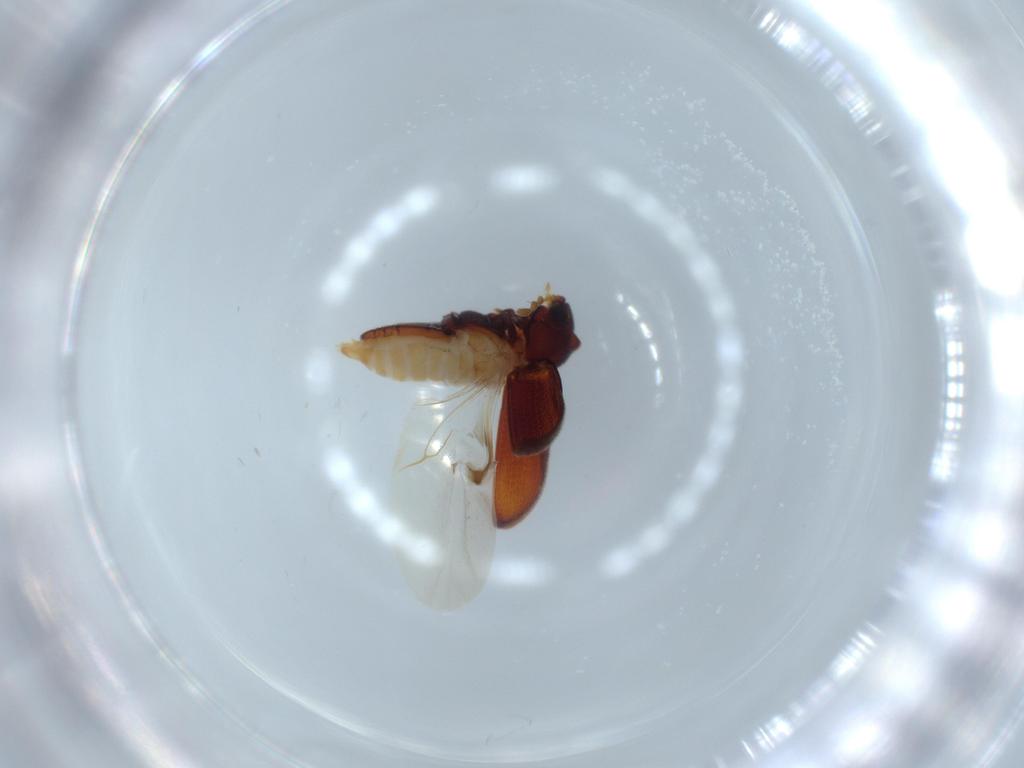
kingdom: Animalia
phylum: Arthropoda
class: Insecta
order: Coleoptera
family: Anobiidae
